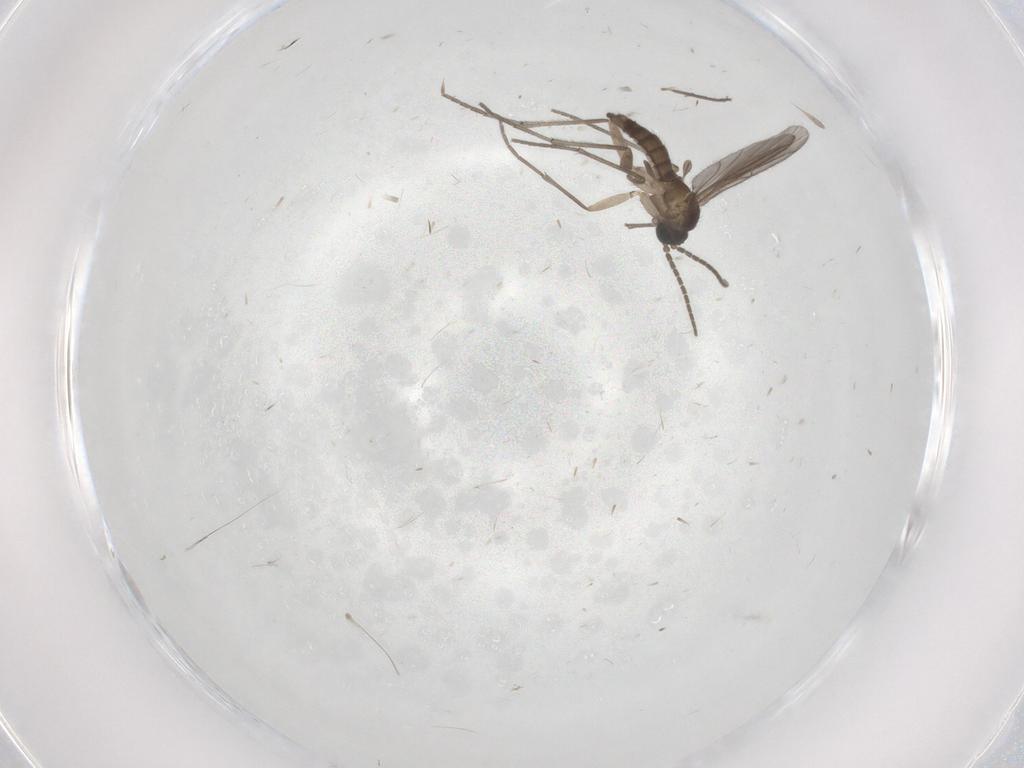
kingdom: Animalia
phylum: Arthropoda
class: Insecta
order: Diptera
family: Sciaridae
